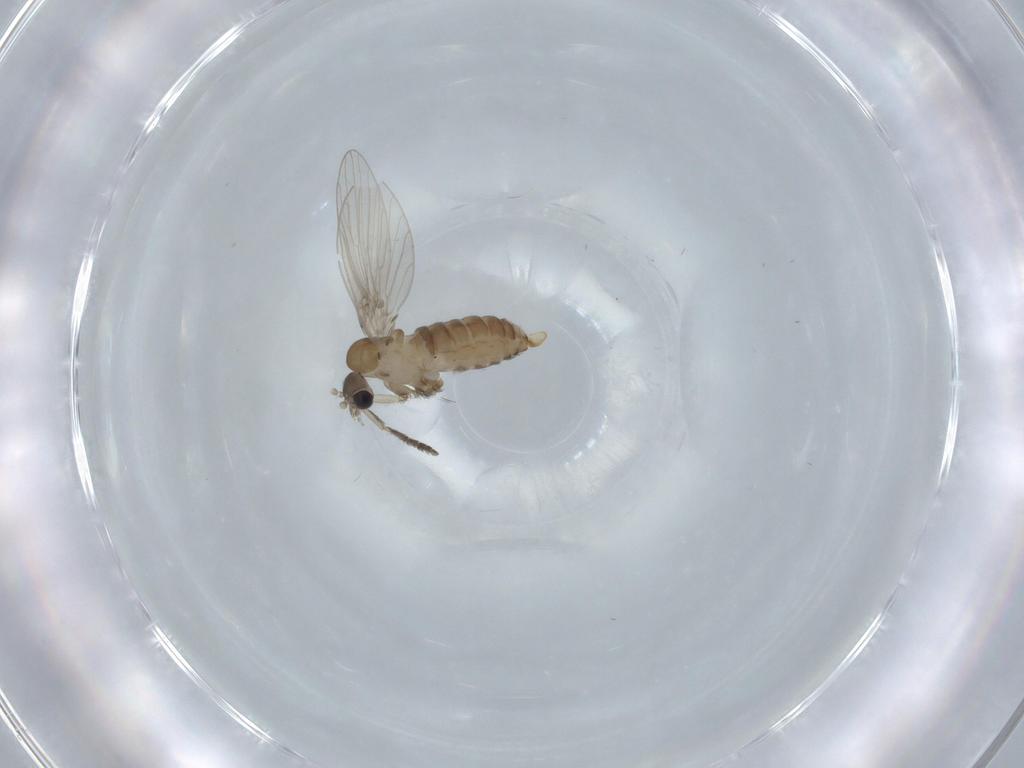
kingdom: Animalia
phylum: Arthropoda
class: Insecta
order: Diptera
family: Psychodidae
